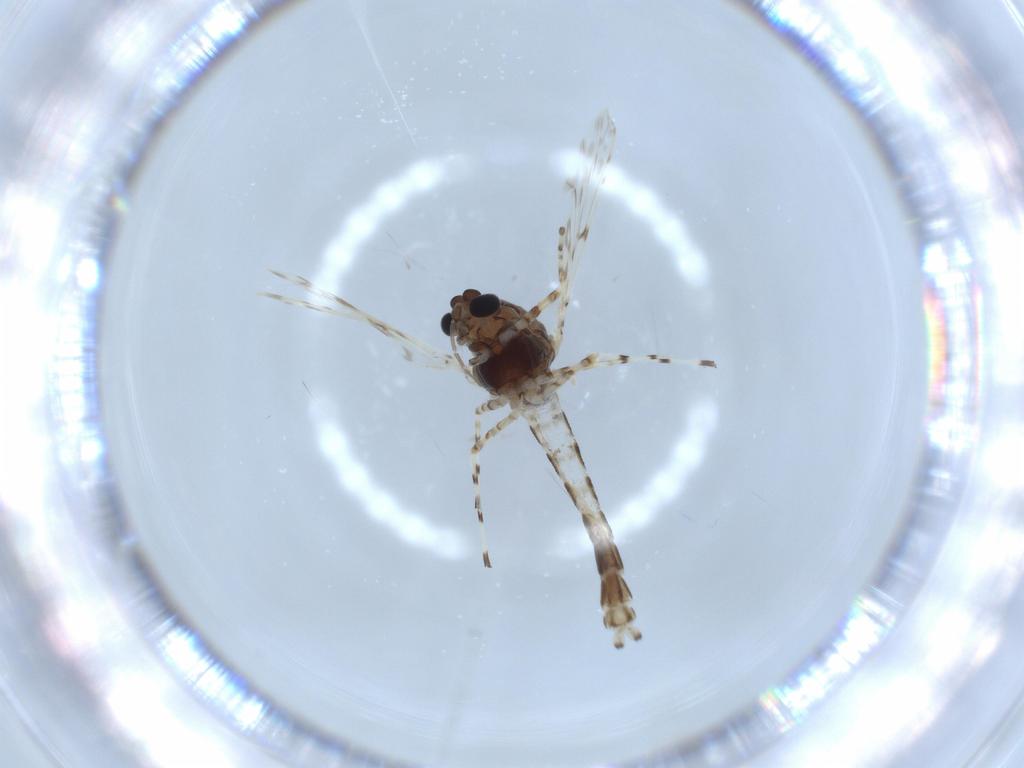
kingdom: Animalia
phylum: Arthropoda
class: Insecta
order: Diptera
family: Chironomidae
